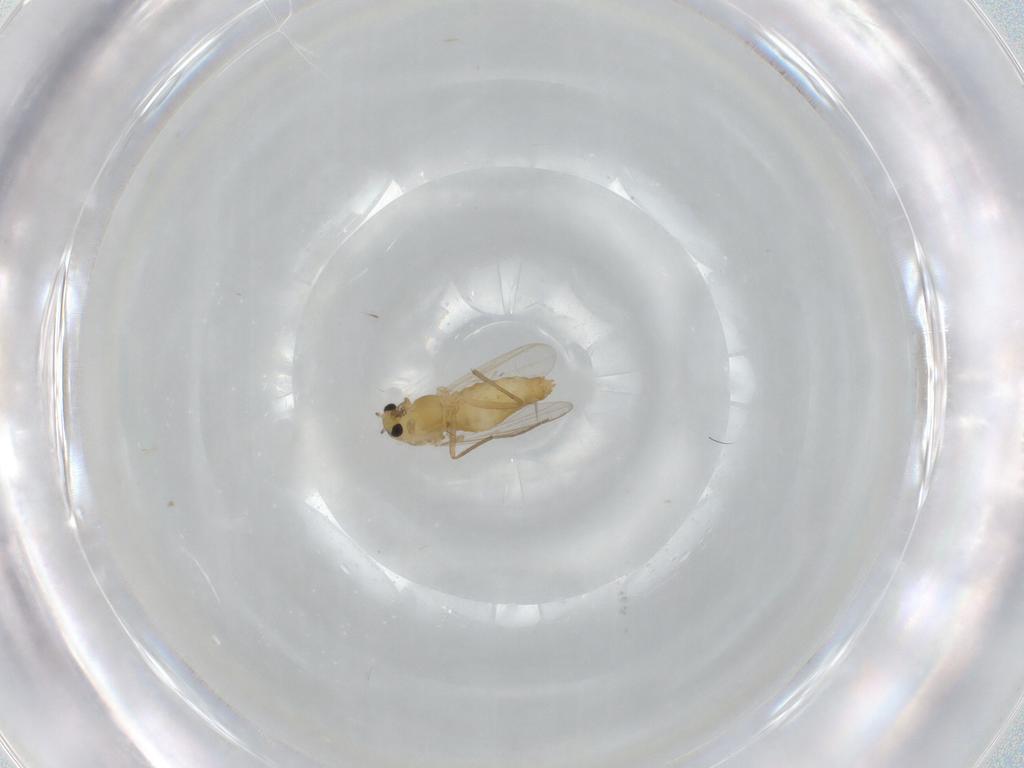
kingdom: Animalia
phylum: Arthropoda
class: Insecta
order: Diptera
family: Chironomidae
